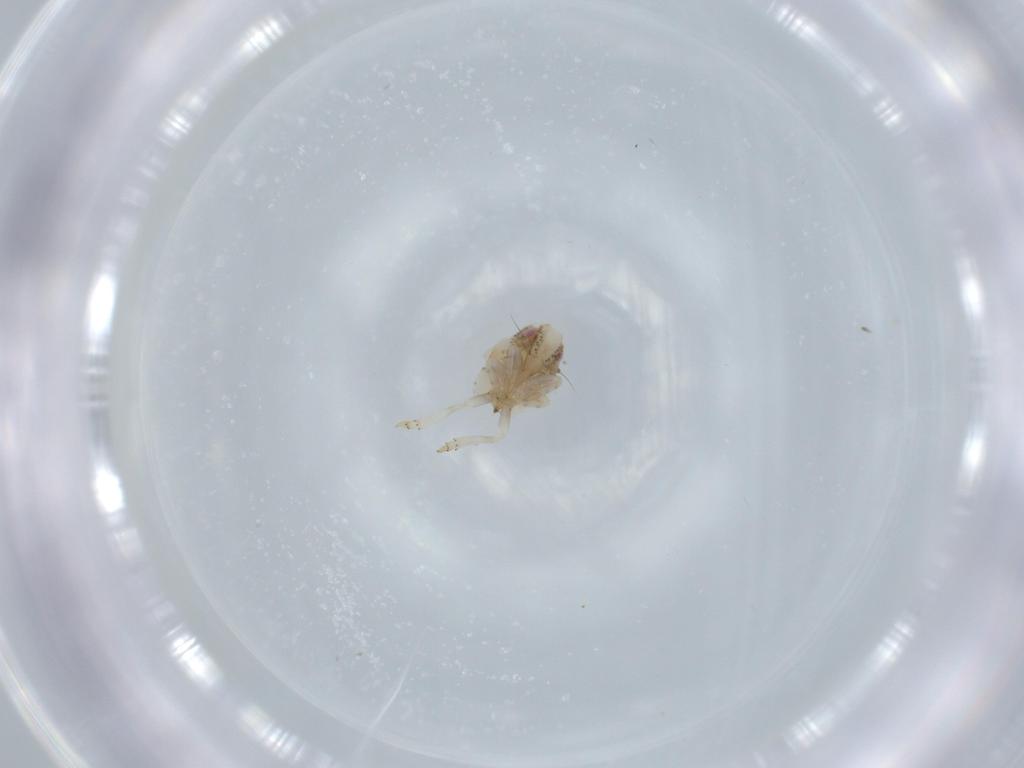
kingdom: Animalia
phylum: Arthropoda
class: Insecta
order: Hemiptera
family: Acanaloniidae
